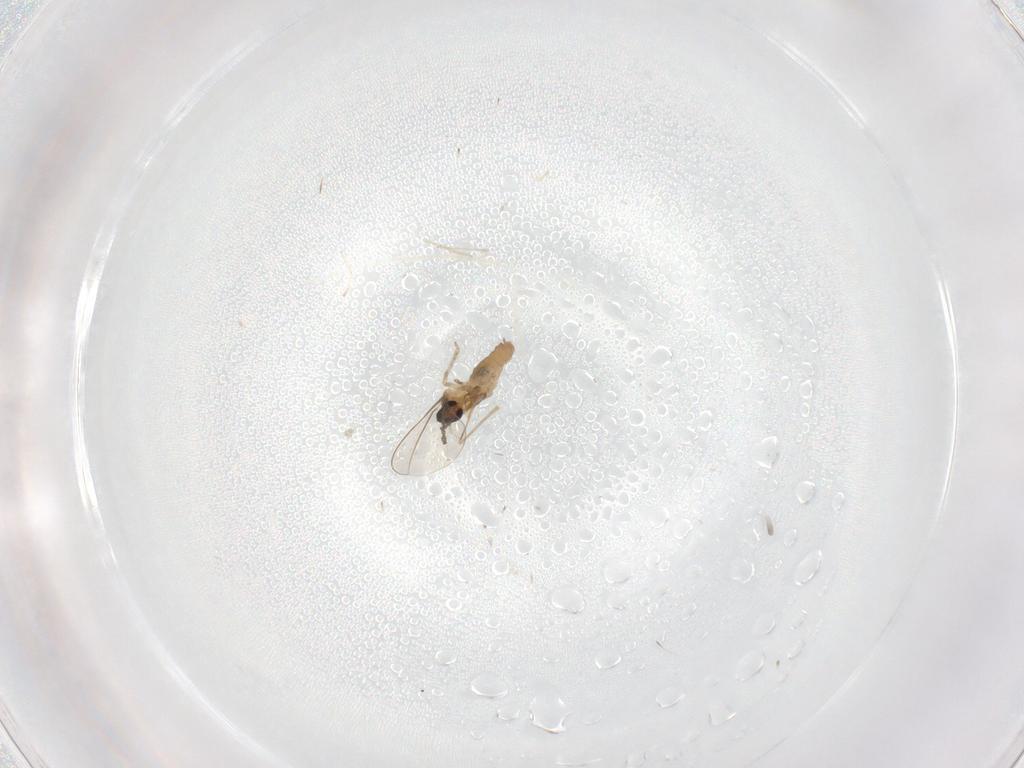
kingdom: Animalia
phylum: Arthropoda
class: Insecta
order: Diptera
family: Cecidomyiidae
